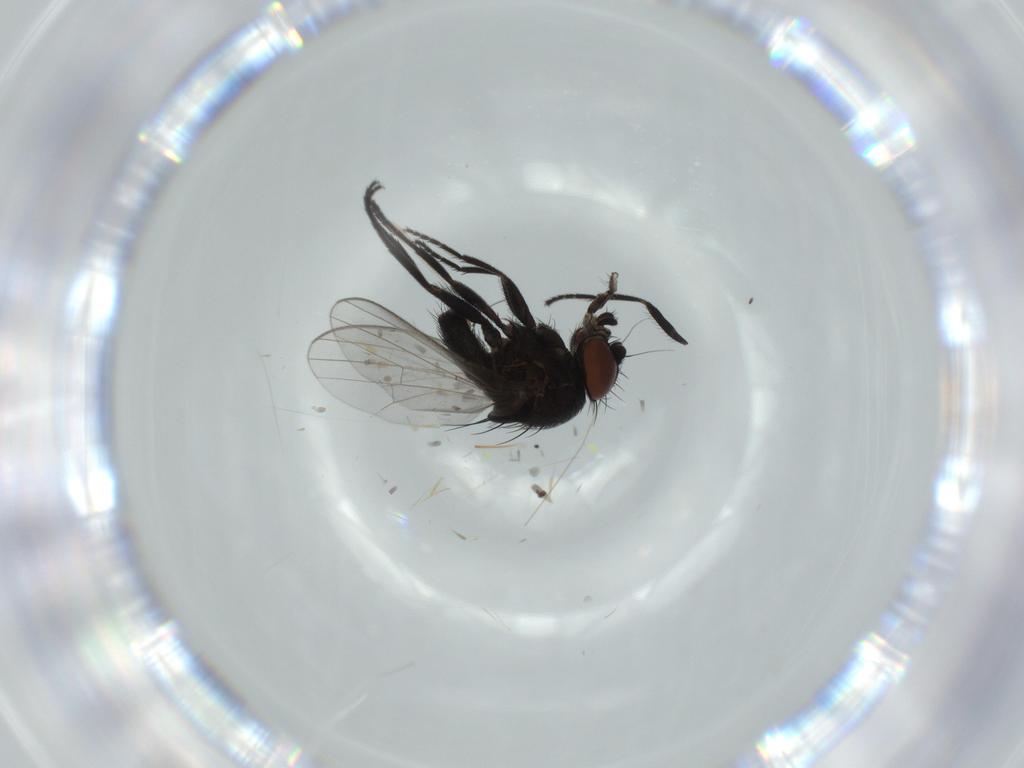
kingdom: Animalia
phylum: Arthropoda
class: Insecta
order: Diptera
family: Milichiidae
